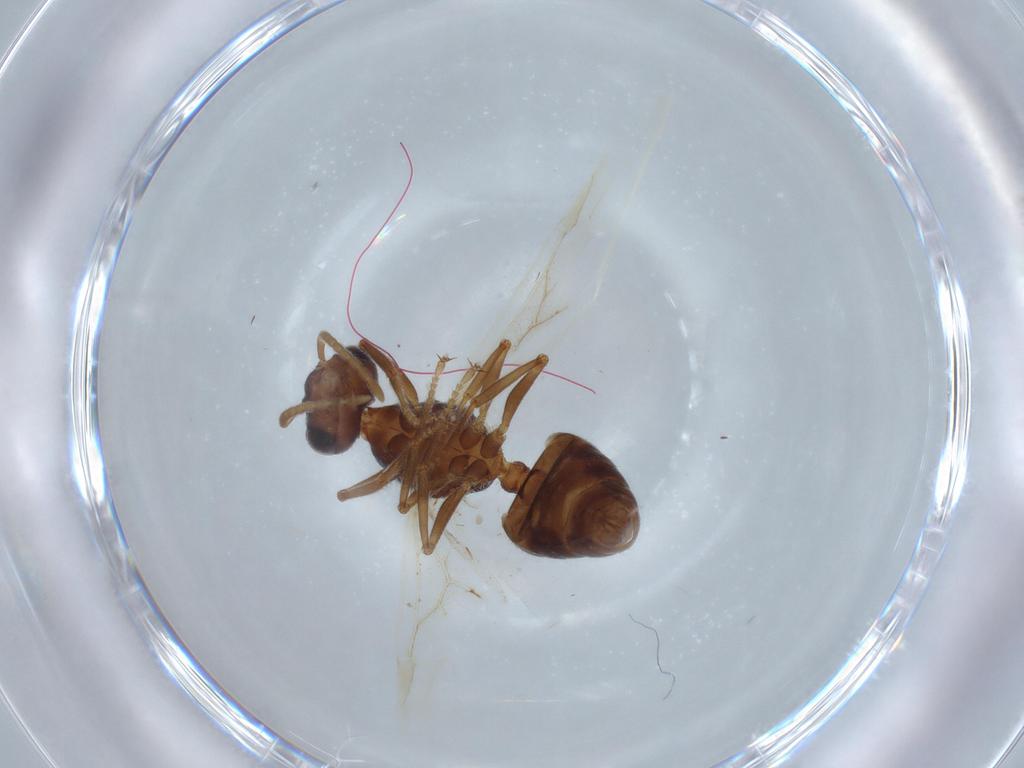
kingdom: Animalia
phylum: Arthropoda
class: Insecta
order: Hymenoptera
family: Formicidae
